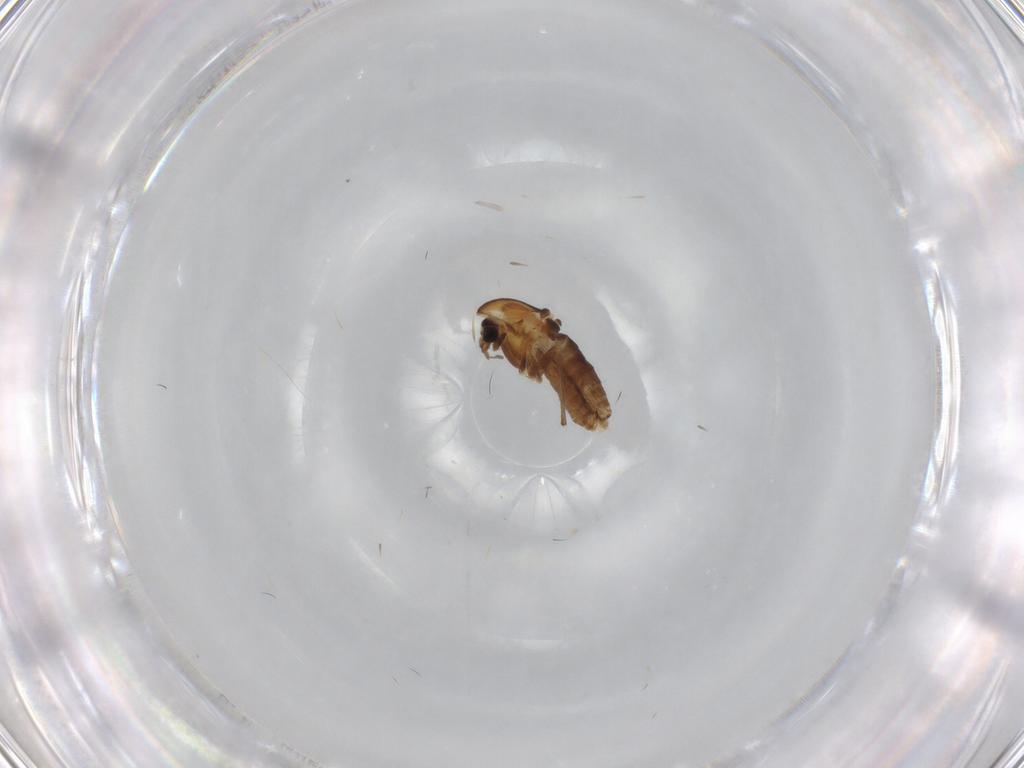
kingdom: Animalia
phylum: Arthropoda
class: Insecta
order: Diptera
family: Chironomidae
